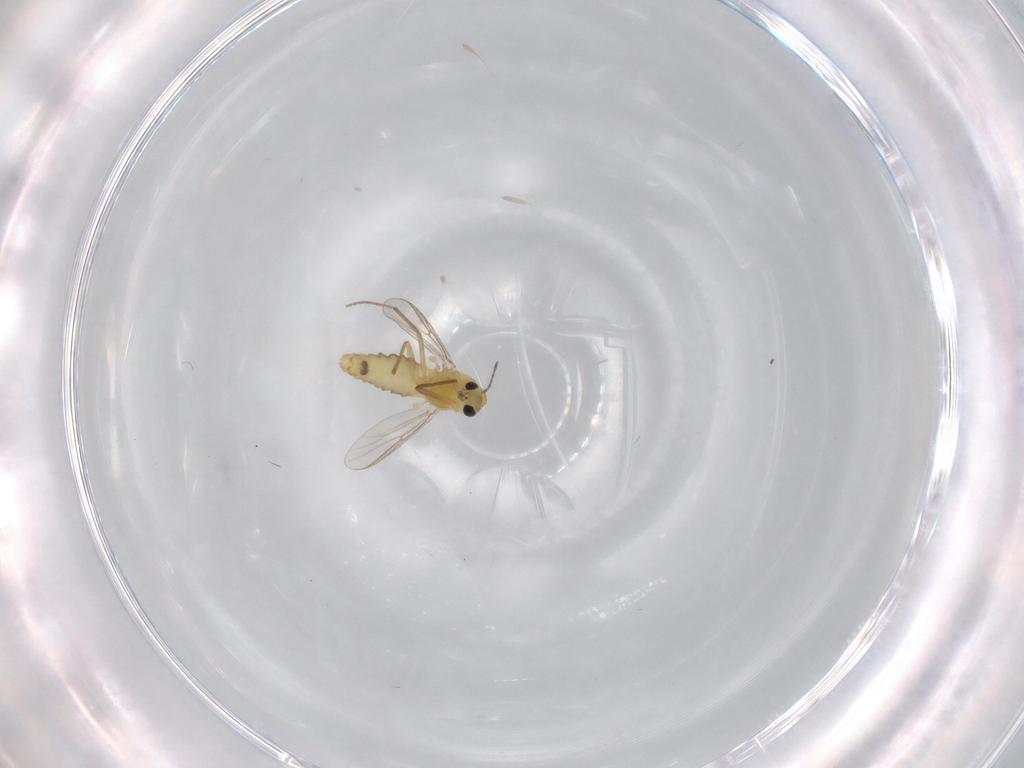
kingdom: Animalia
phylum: Arthropoda
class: Insecta
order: Diptera
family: Chironomidae
